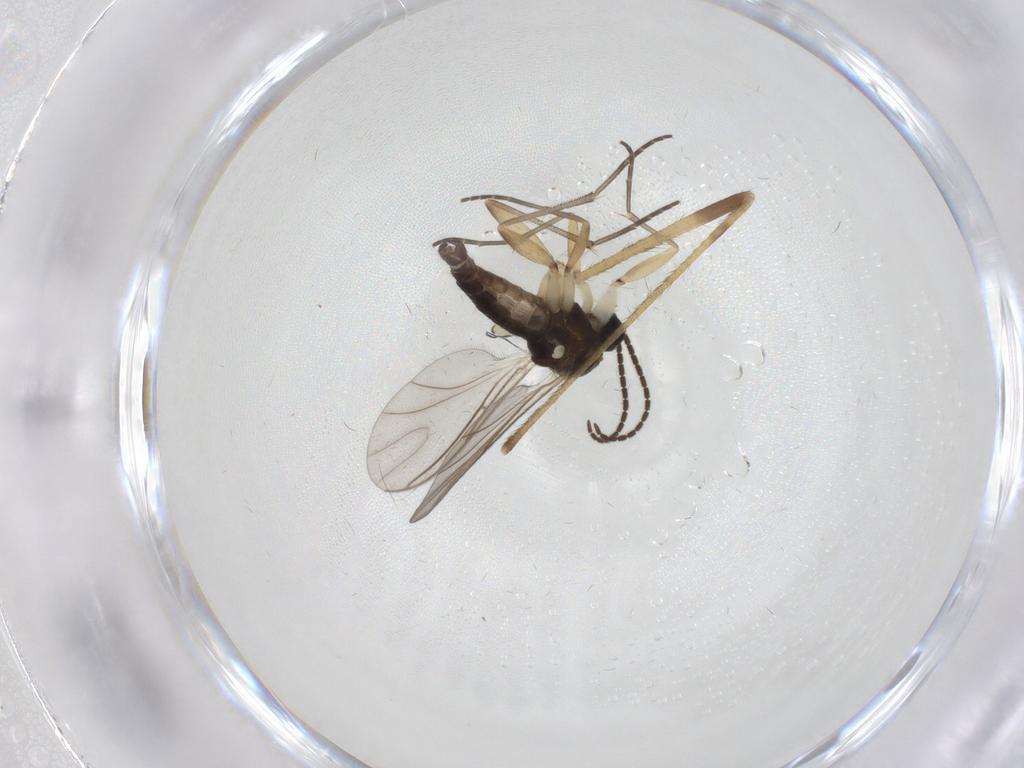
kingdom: Animalia
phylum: Arthropoda
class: Insecta
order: Diptera
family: Sciaridae
